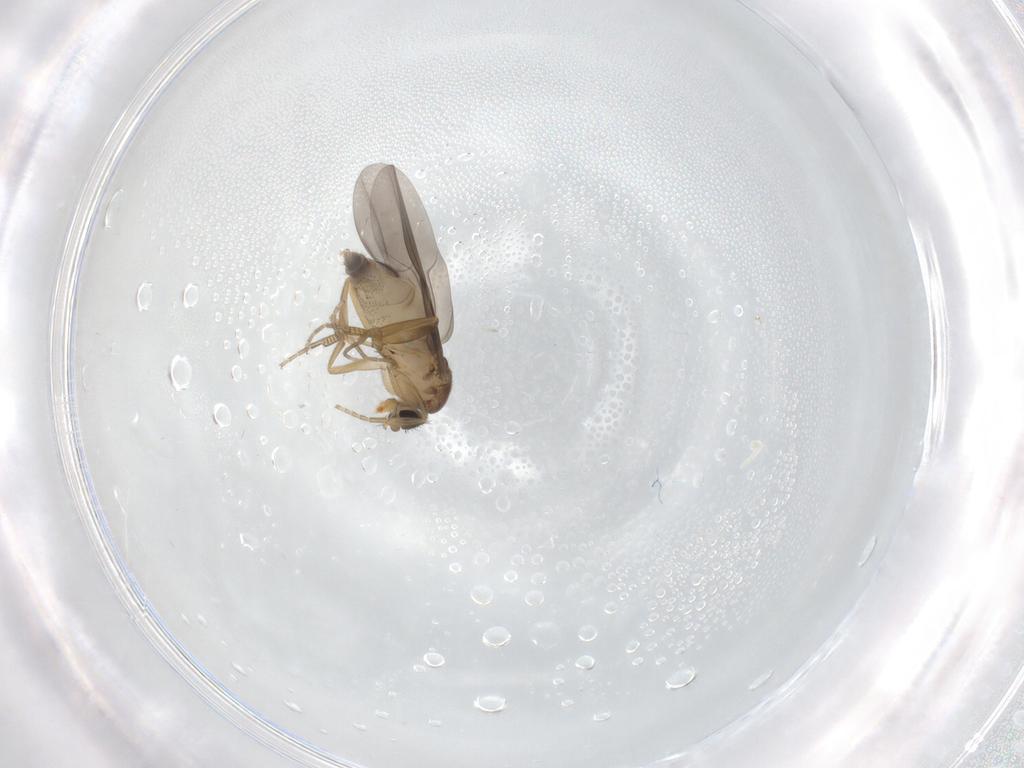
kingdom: Animalia
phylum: Arthropoda
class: Insecta
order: Diptera
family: Phoridae
